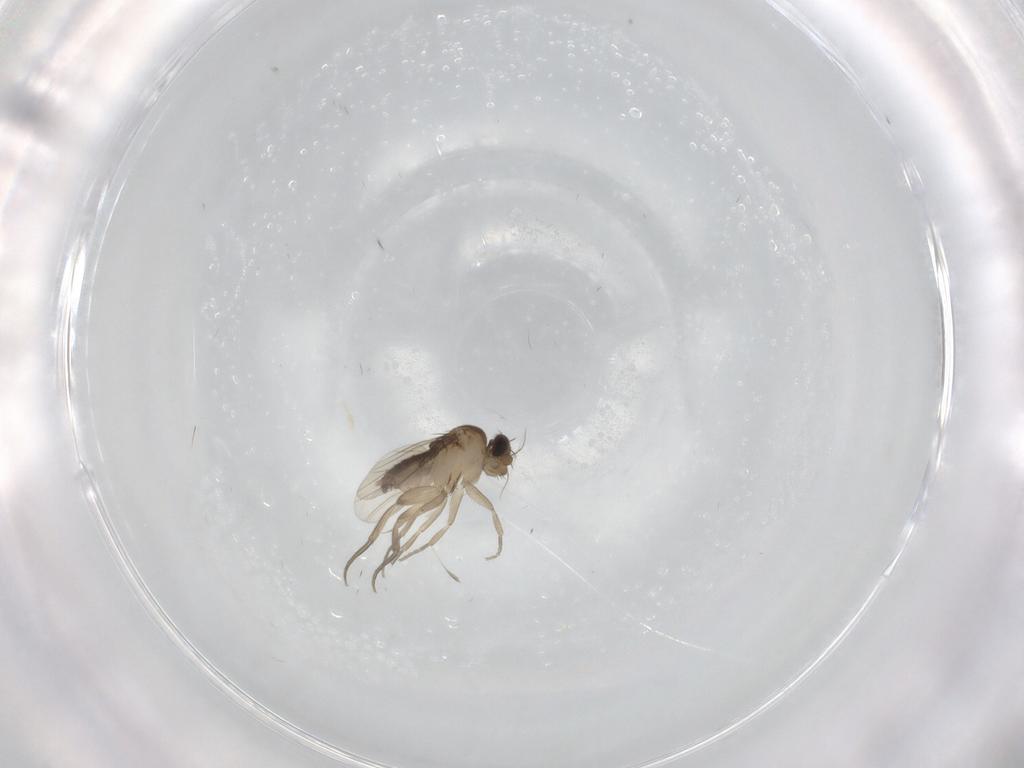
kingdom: Animalia
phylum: Arthropoda
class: Insecta
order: Diptera
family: Phoridae
